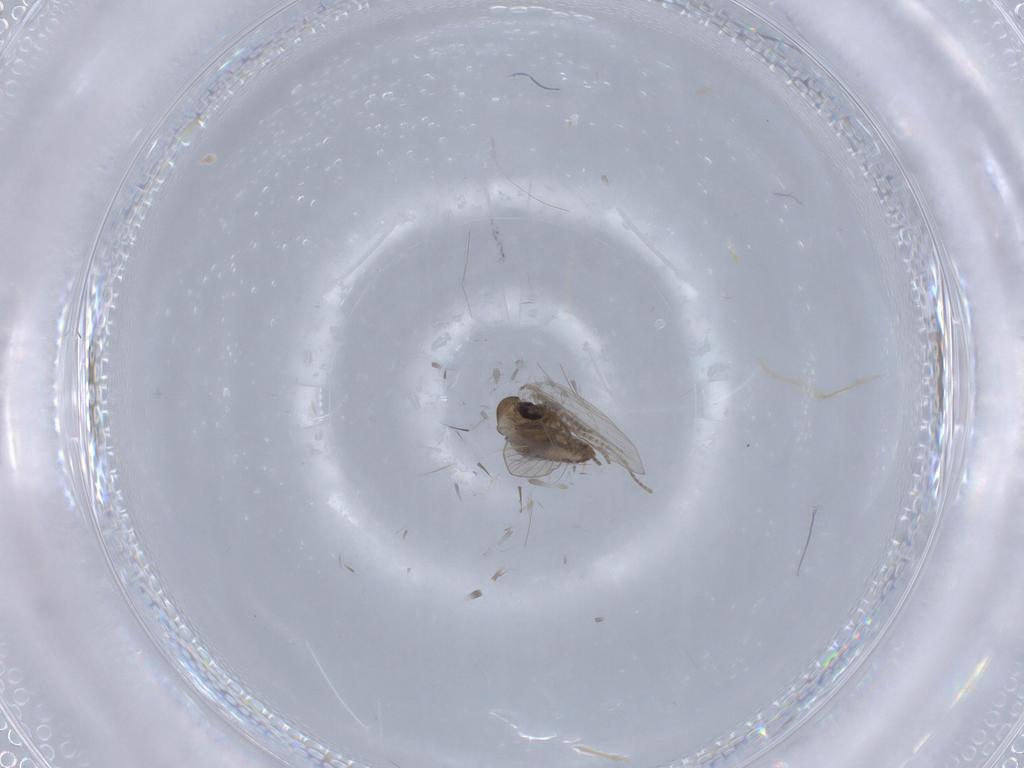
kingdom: Animalia
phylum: Arthropoda
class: Insecta
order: Diptera
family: Psychodidae
